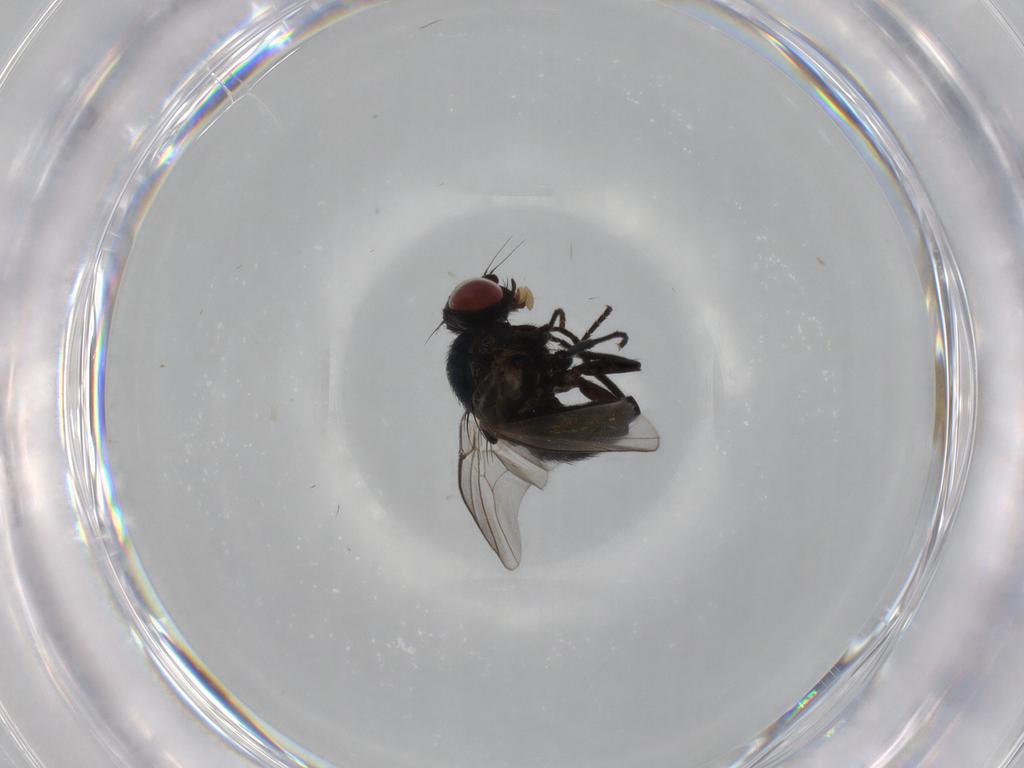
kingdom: Animalia
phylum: Arthropoda
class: Insecta
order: Diptera
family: Agromyzidae
